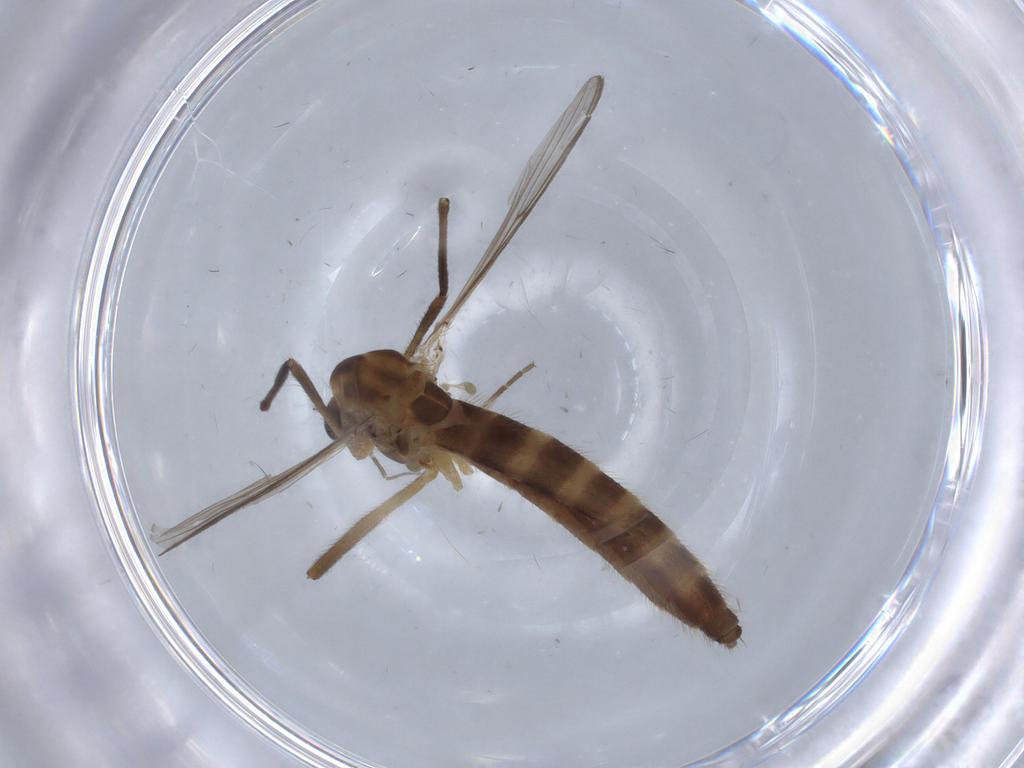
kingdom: Animalia
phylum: Arthropoda
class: Insecta
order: Diptera
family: Chironomidae
